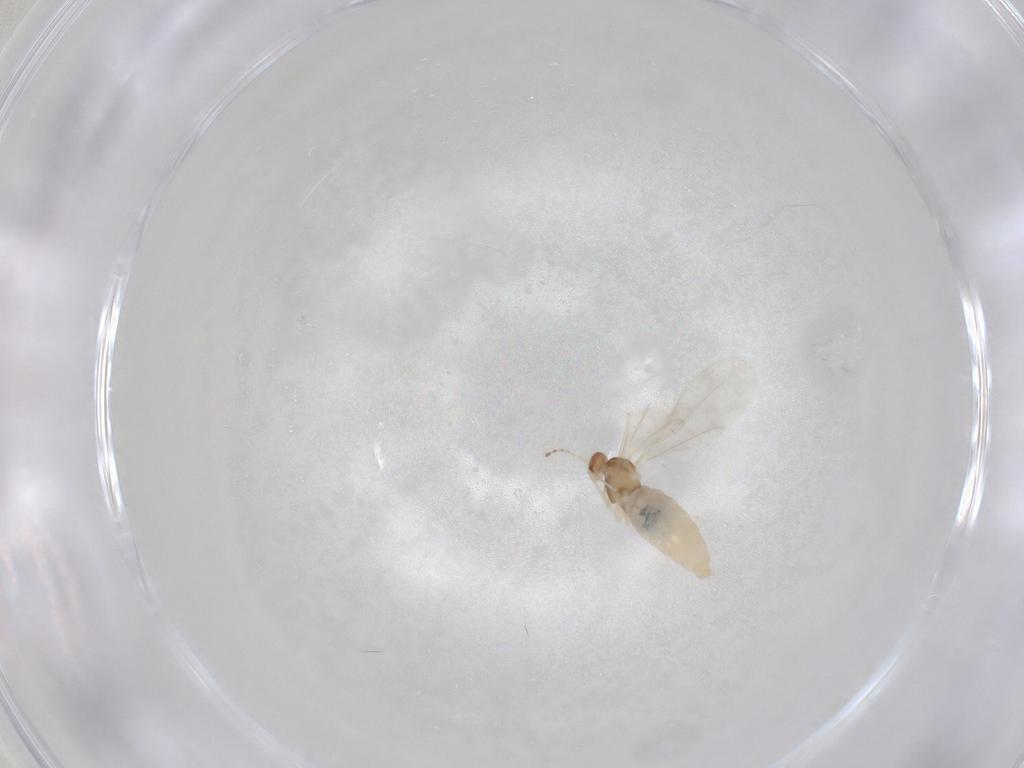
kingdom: Animalia
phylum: Arthropoda
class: Insecta
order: Diptera
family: Cecidomyiidae
